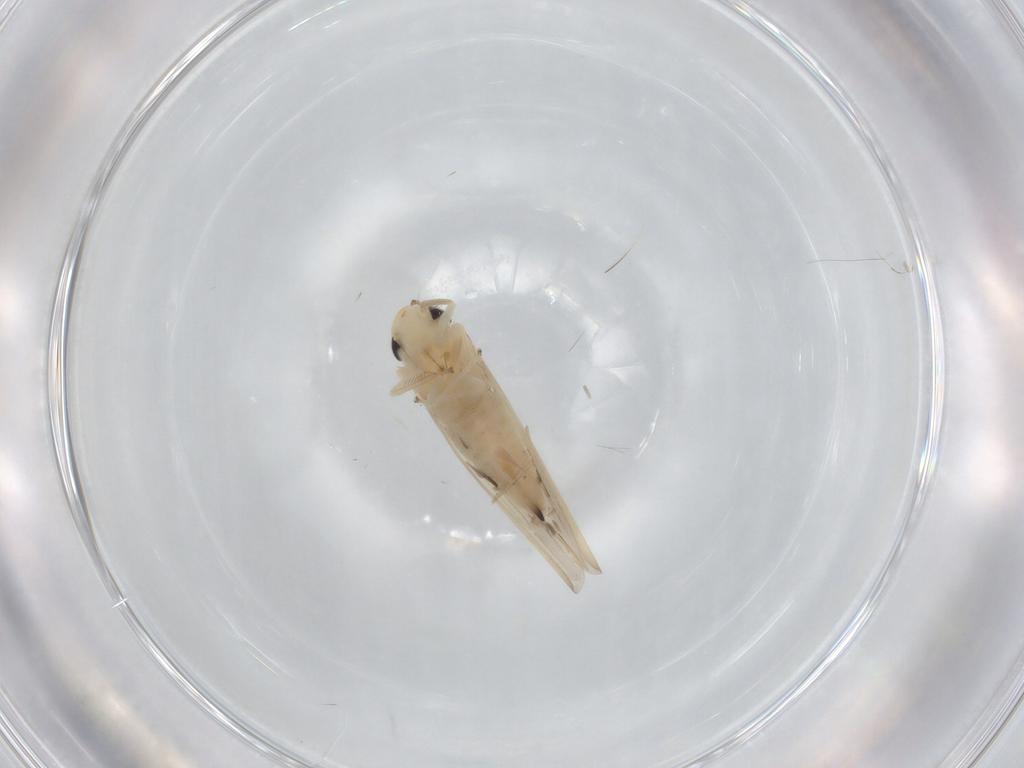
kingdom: Animalia
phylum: Arthropoda
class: Insecta
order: Hemiptera
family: Cicadellidae
